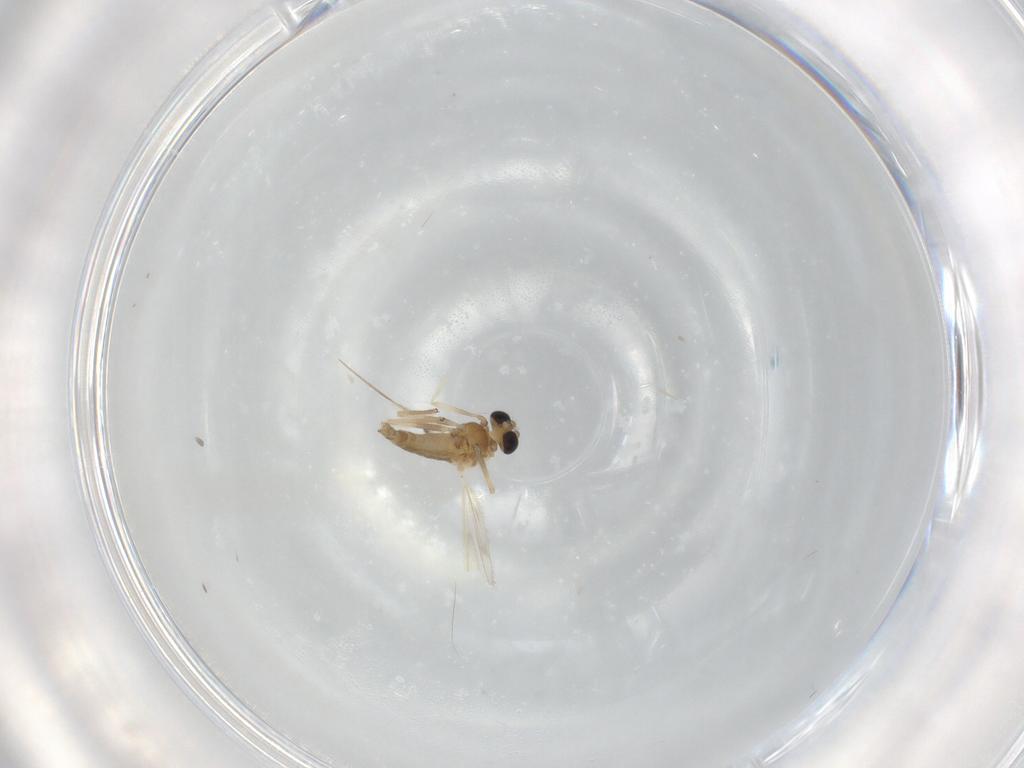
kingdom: Animalia
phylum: Arthropoda
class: Insecta
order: Diptera
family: Chironomidae
